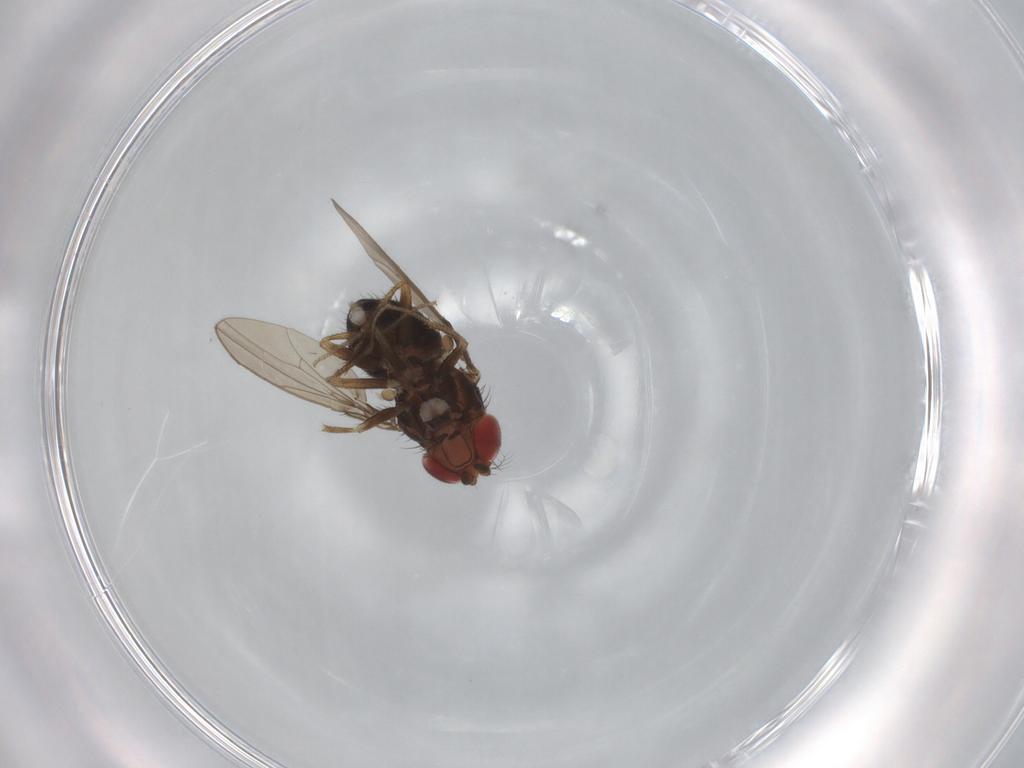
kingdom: Animalia
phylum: Arthropoda
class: Insecta
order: Diptera
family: Drosophilidae
